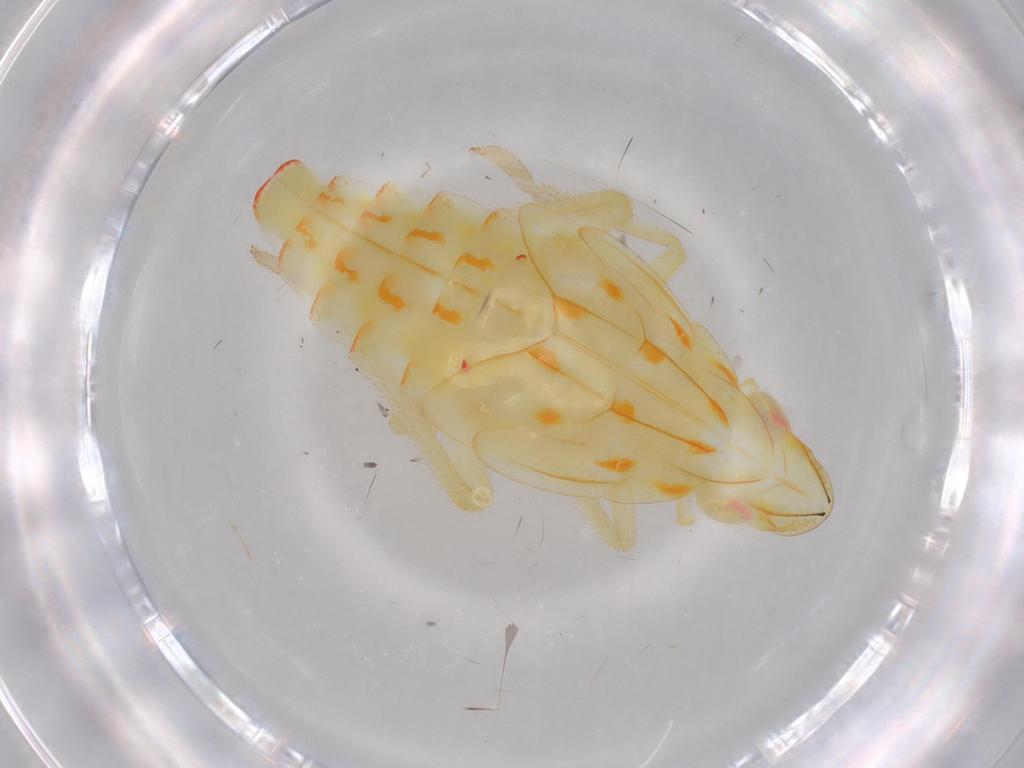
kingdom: Animalia
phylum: Arthropoda
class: Insecta
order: Hemiptera
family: Tropiduchidae
